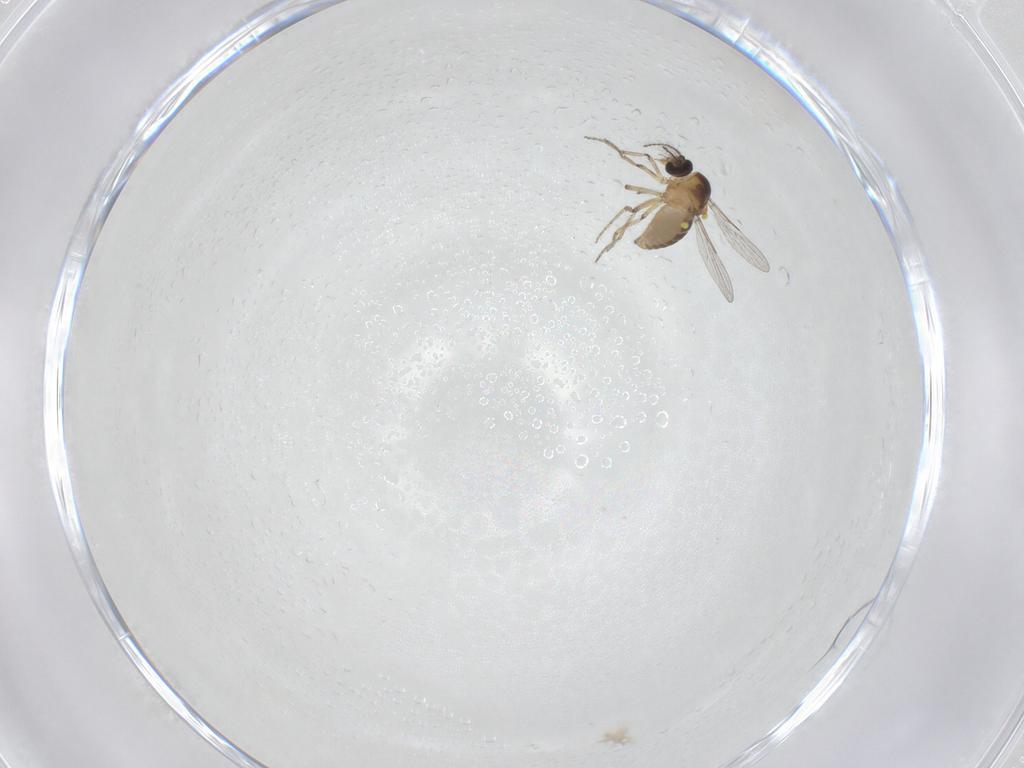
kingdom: Animalia
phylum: Arthropoda
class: Insecta
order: Diptera
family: Ceratopogonidae
